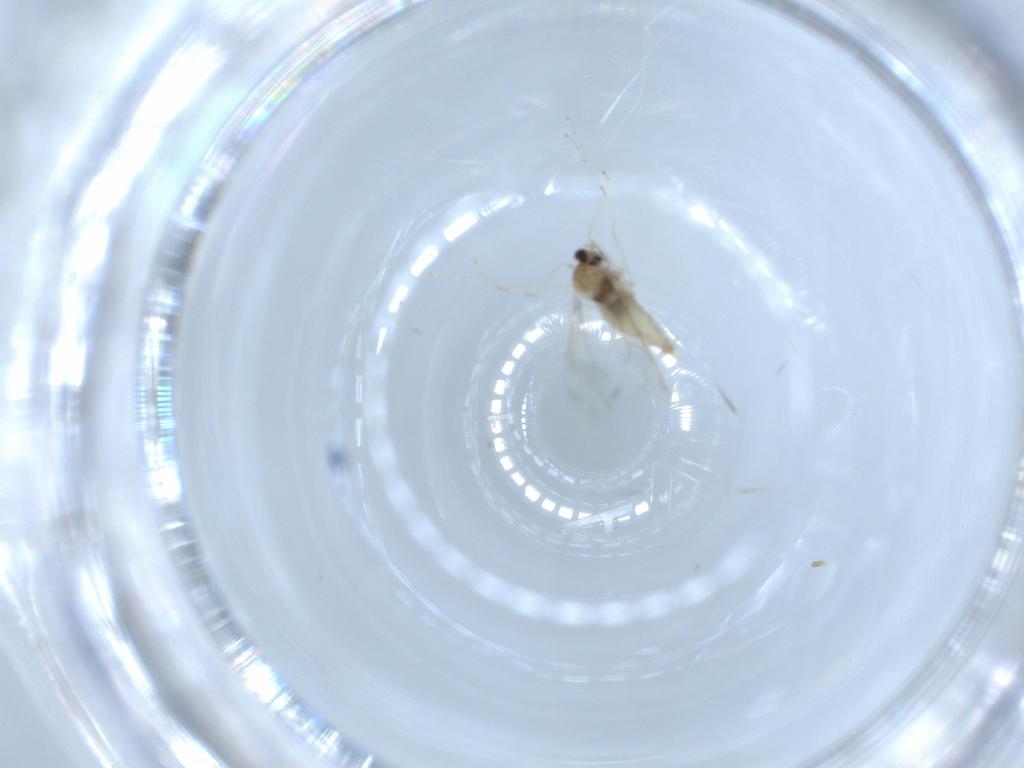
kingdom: Animalia
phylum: Arthropoda
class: Insecta
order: Diptera
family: Cecidomyiidae
